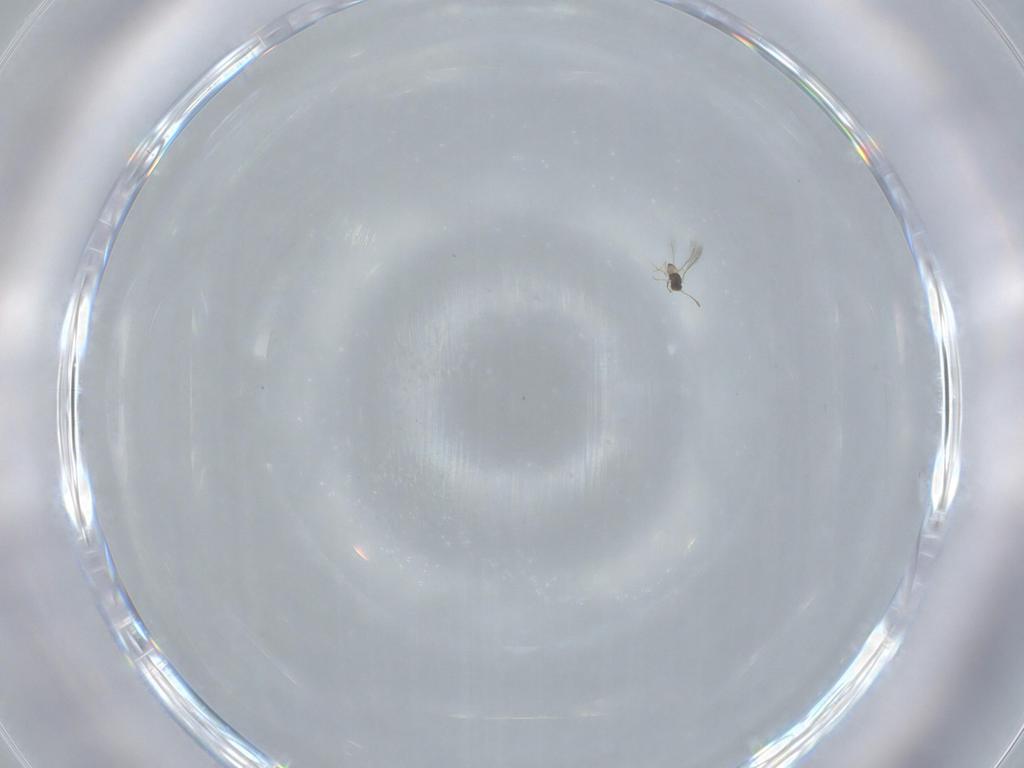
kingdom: Animalia
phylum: Arthropoda
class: Insecta
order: Hymenoptera
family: Mymaridae
